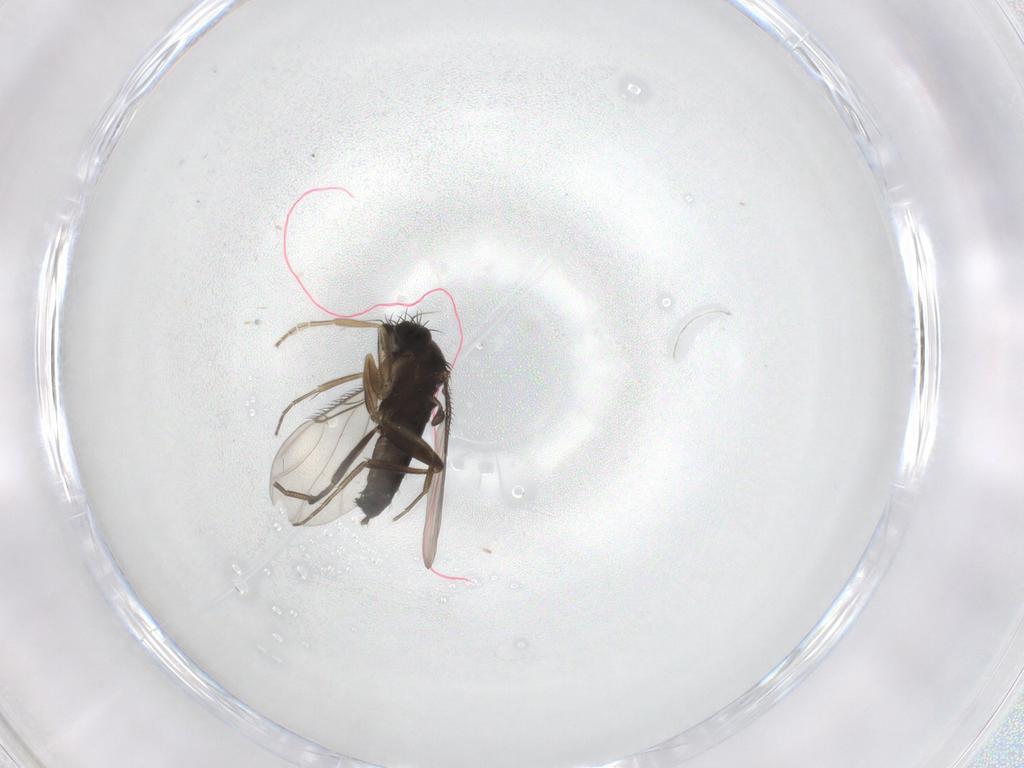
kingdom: Animalia
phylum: Arthropoda
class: Insecta
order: Diptera
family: Phoridae
